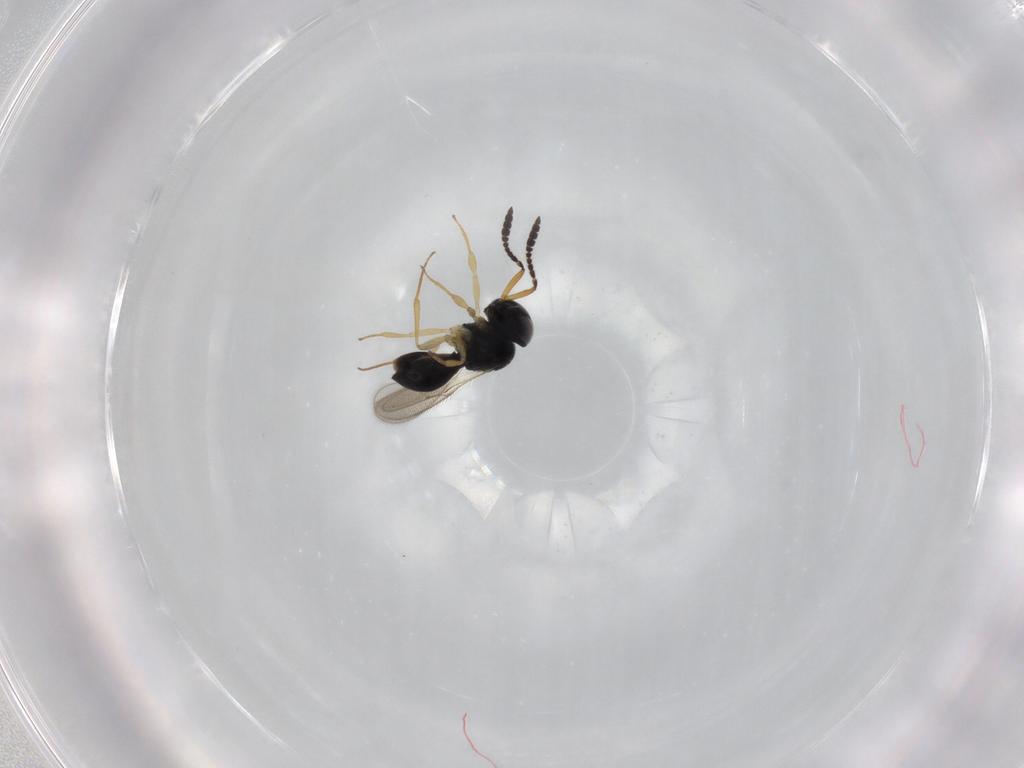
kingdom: Animalia
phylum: Arthropoda
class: Insecta
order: Hymenoptera
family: Scelionidae
